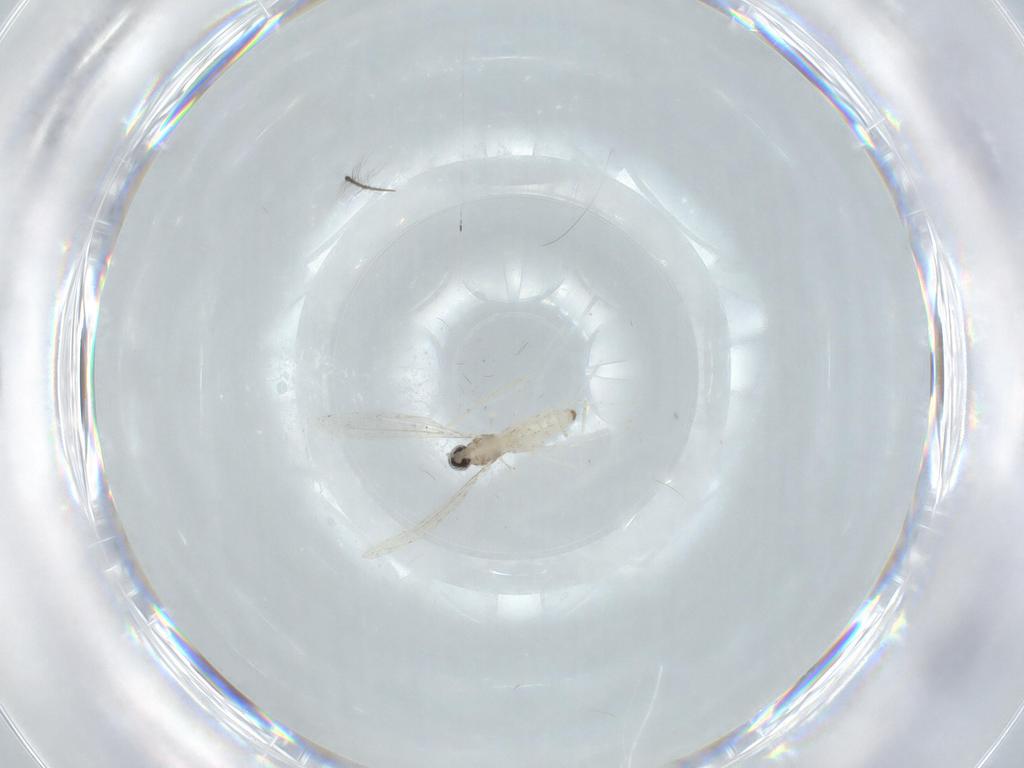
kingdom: Animalia
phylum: Arthropoda
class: Insecta
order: Diptera
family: Cecidomyiidae
